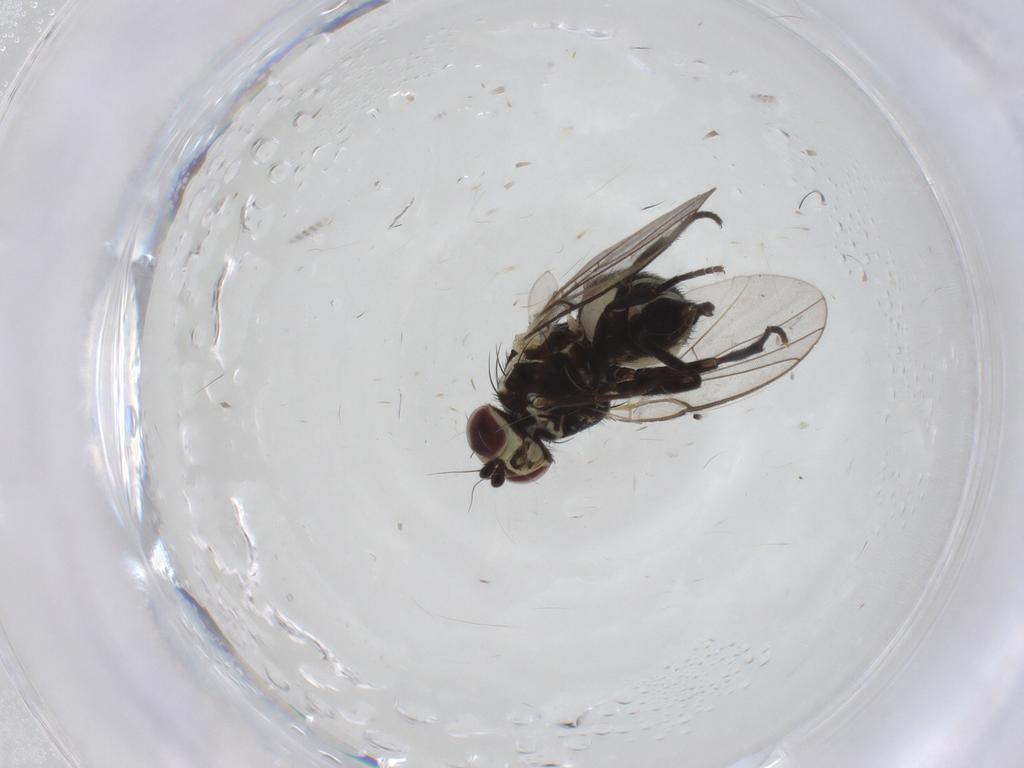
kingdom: Animalia
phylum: Arthropoda
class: Insecta
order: Diptera
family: Agromyzidae
